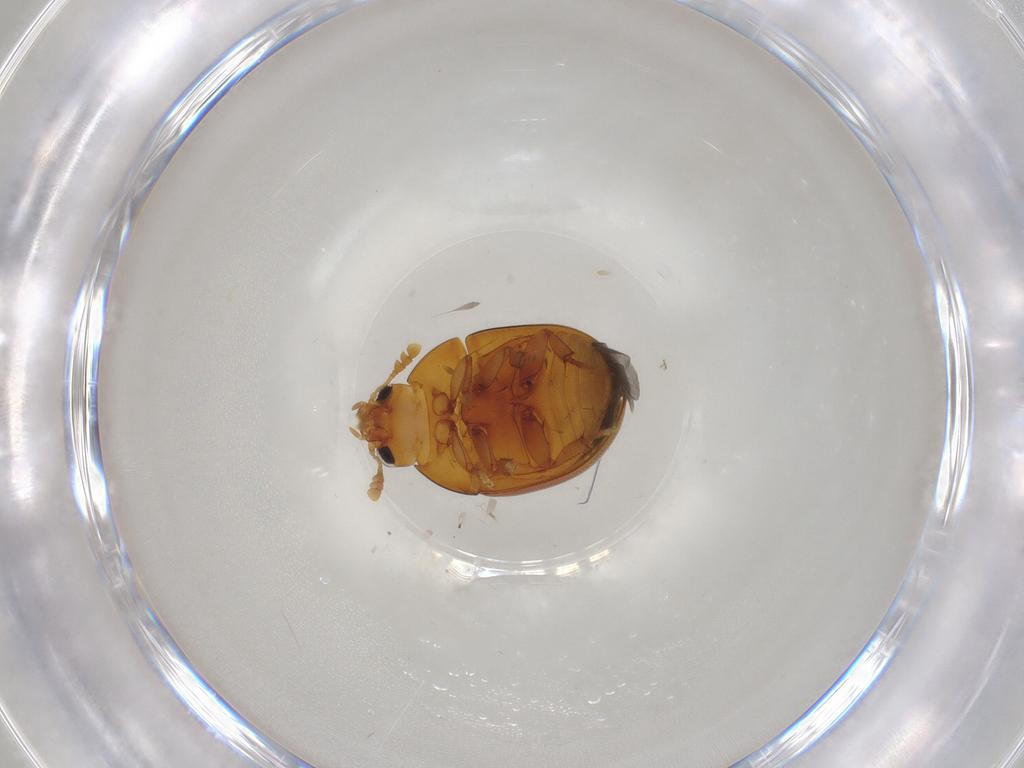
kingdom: Animalia
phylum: Arthropoda
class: Insecta
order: Coleoptera
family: Phalacridae
